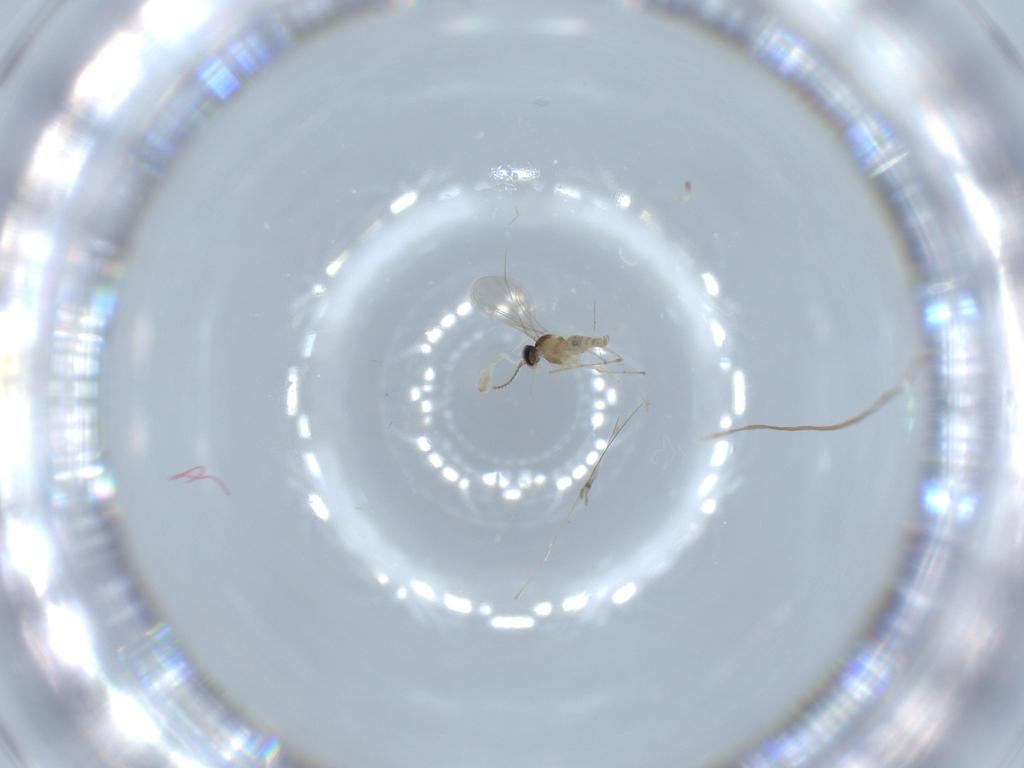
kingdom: Animalia
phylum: Arthropoda
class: Insecta
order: Diptera
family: Cecidomyiidae
